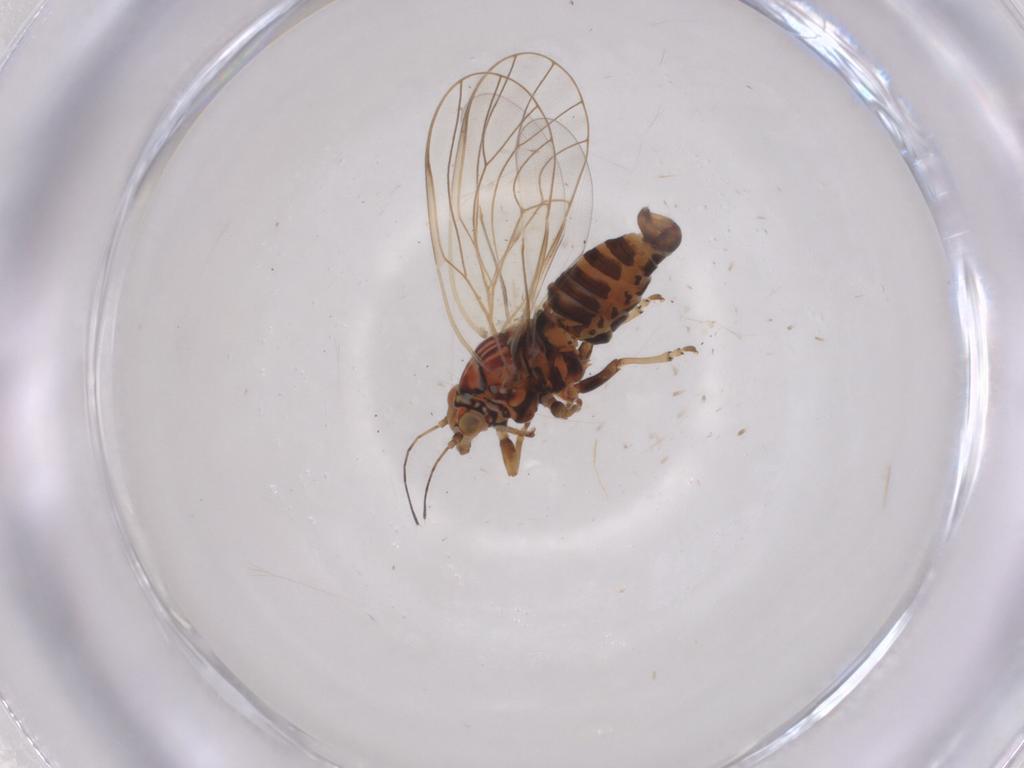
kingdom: Animalia
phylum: Arthropoda
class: Insecta
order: Hemiptera
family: Psyllidae
